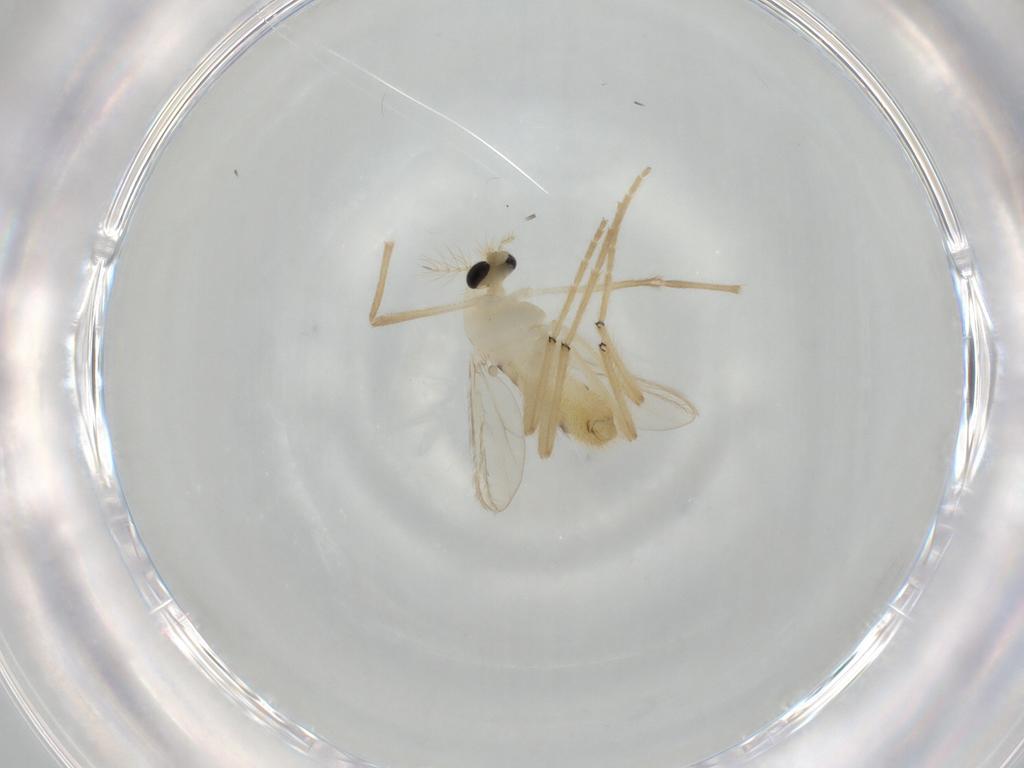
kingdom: Animalia
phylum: Arthropoda
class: Insecta
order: Diptera
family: Chironomidae
